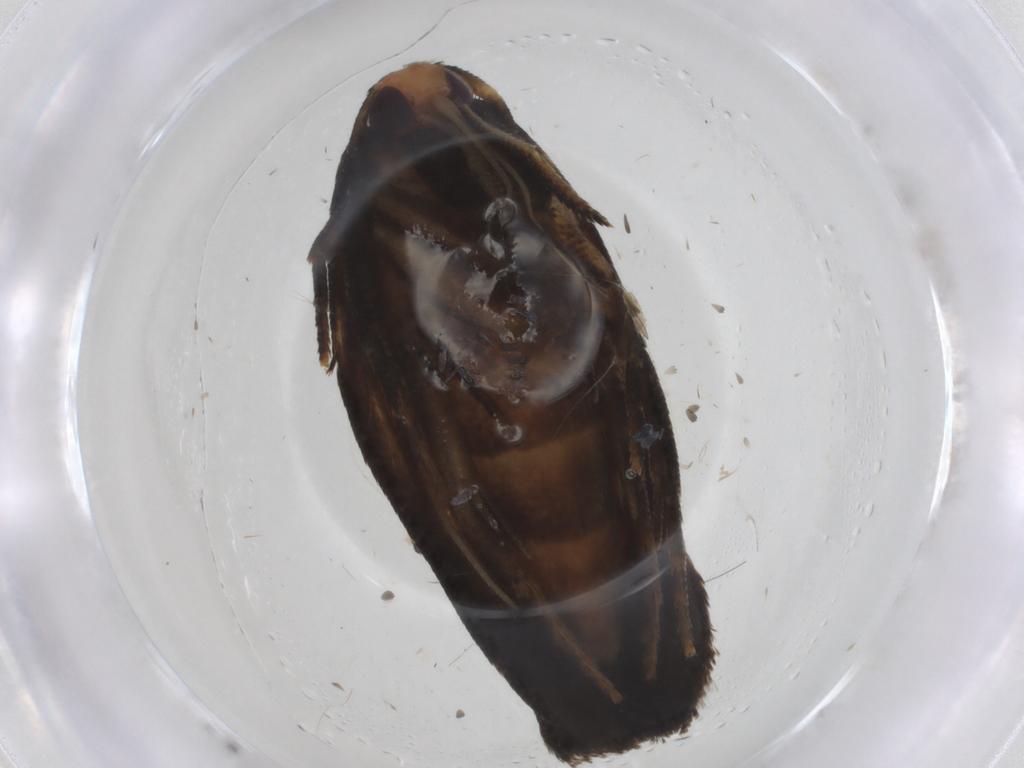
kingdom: Animalia
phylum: Arthropoda
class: Insecta
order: Lepidoptera
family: Oecophoridae
